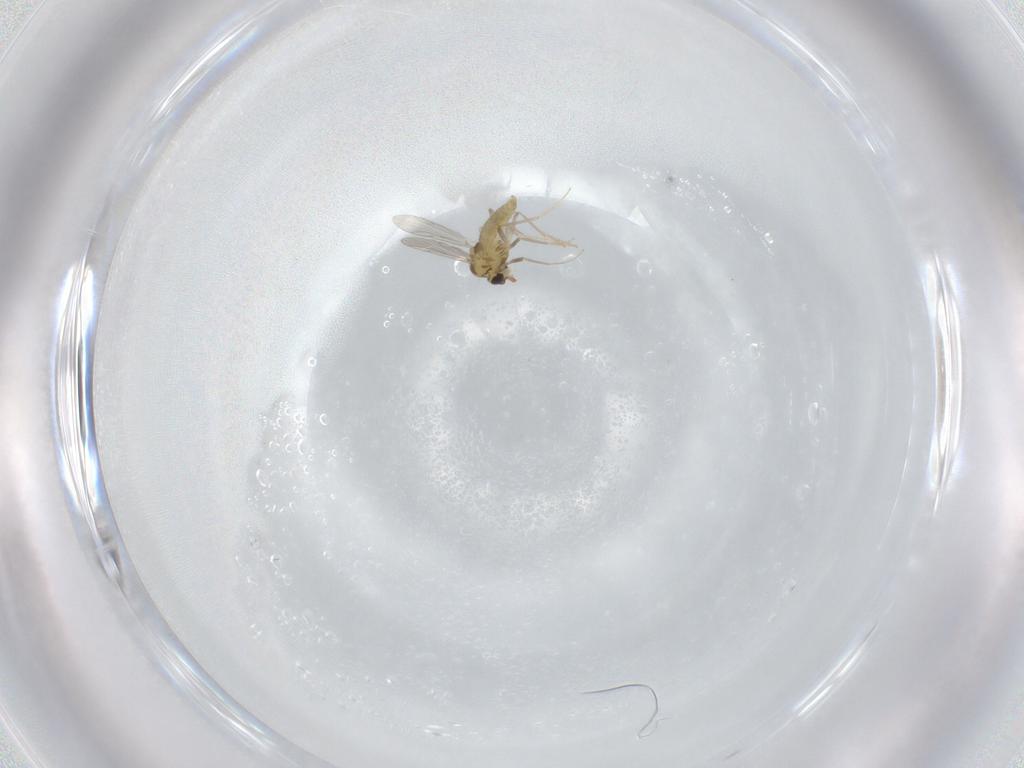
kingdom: Animalia
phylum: Arthropoda
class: Insecta
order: Diptera
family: Chironomidae
